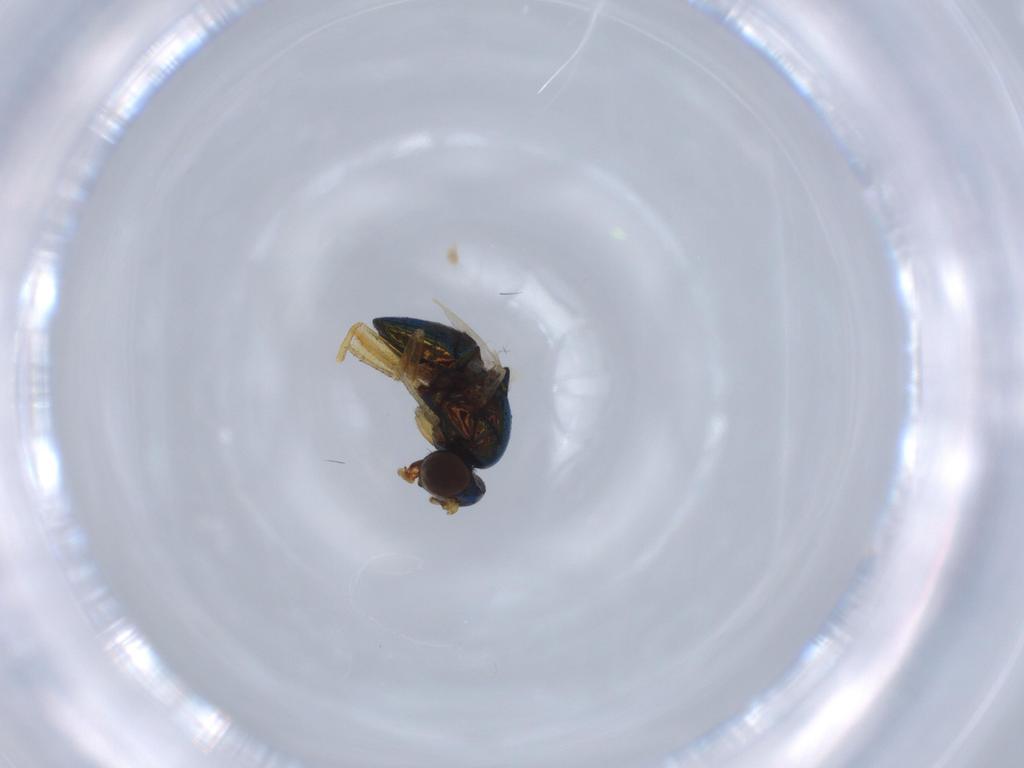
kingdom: Animalia
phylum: Arthropoda
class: Insecta
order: Diptera
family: Ephydridae
